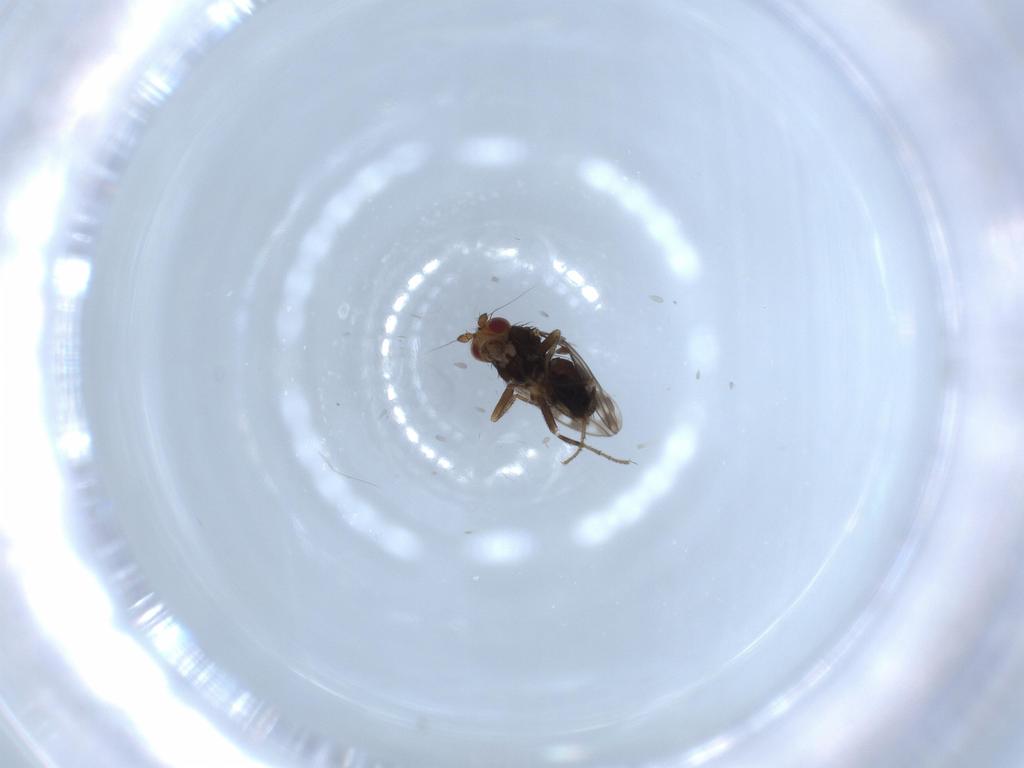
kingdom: Animalia
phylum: Arthropoda
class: Insecta
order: Diptera
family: Sphaeroceridae
